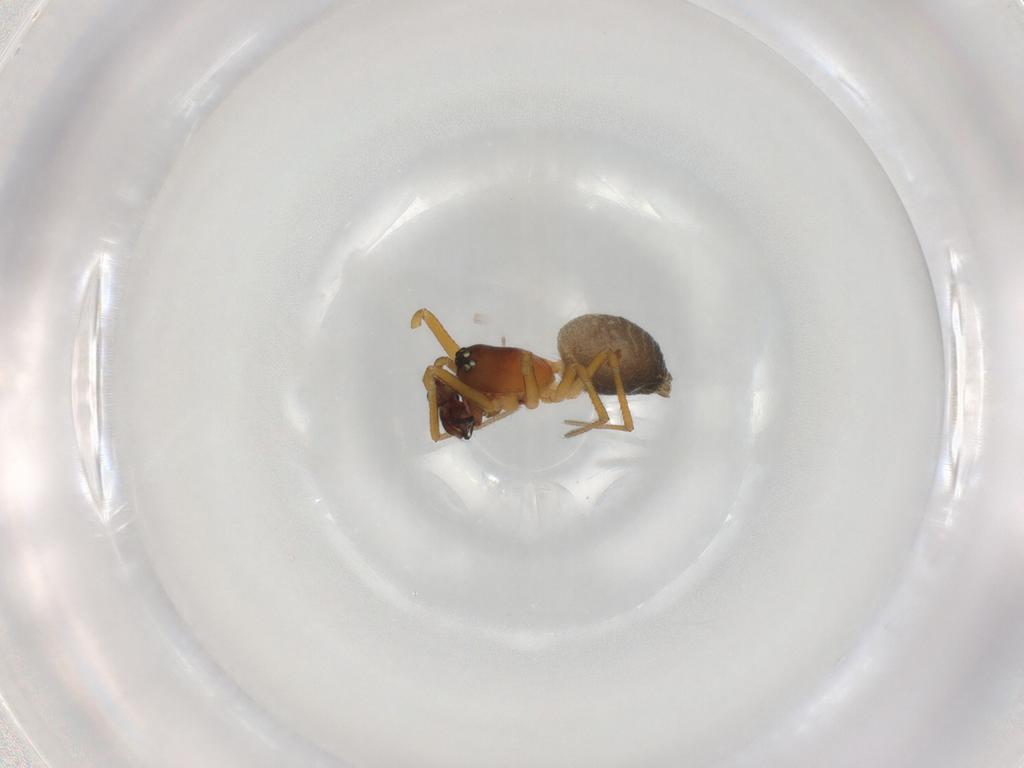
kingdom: Animalia
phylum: Arthropoda
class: Arachnida
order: Araneae
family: Linyphiidae
